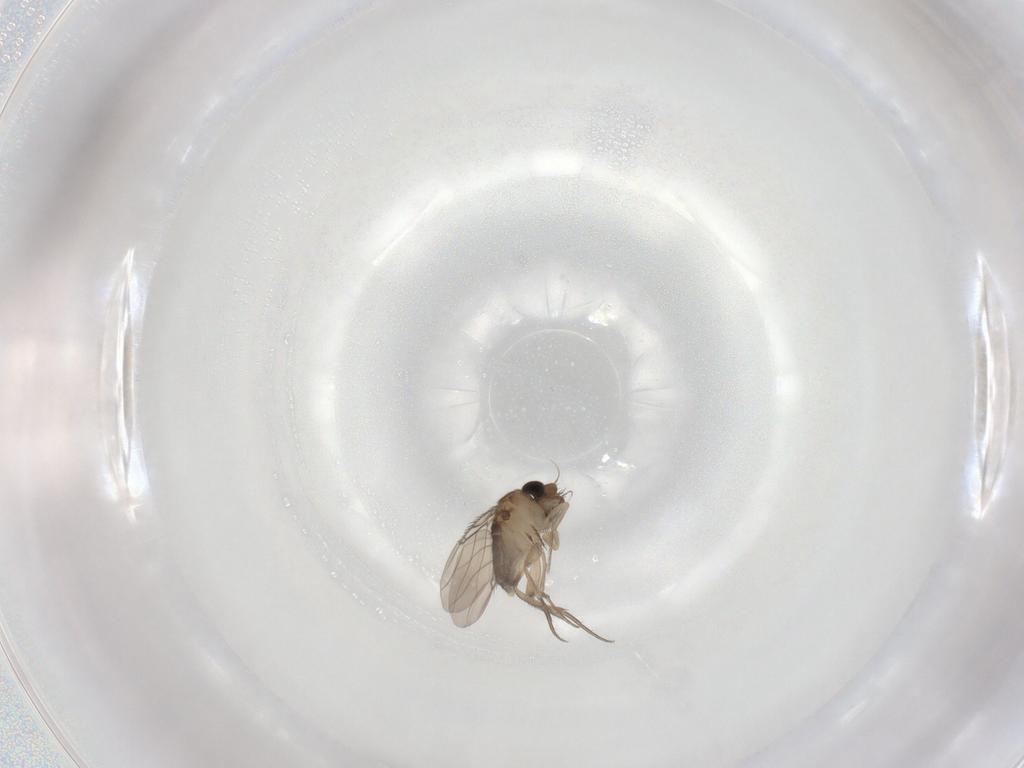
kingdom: Animalia
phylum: Arthropoda
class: Insecta
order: Diptera
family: Phoridae
